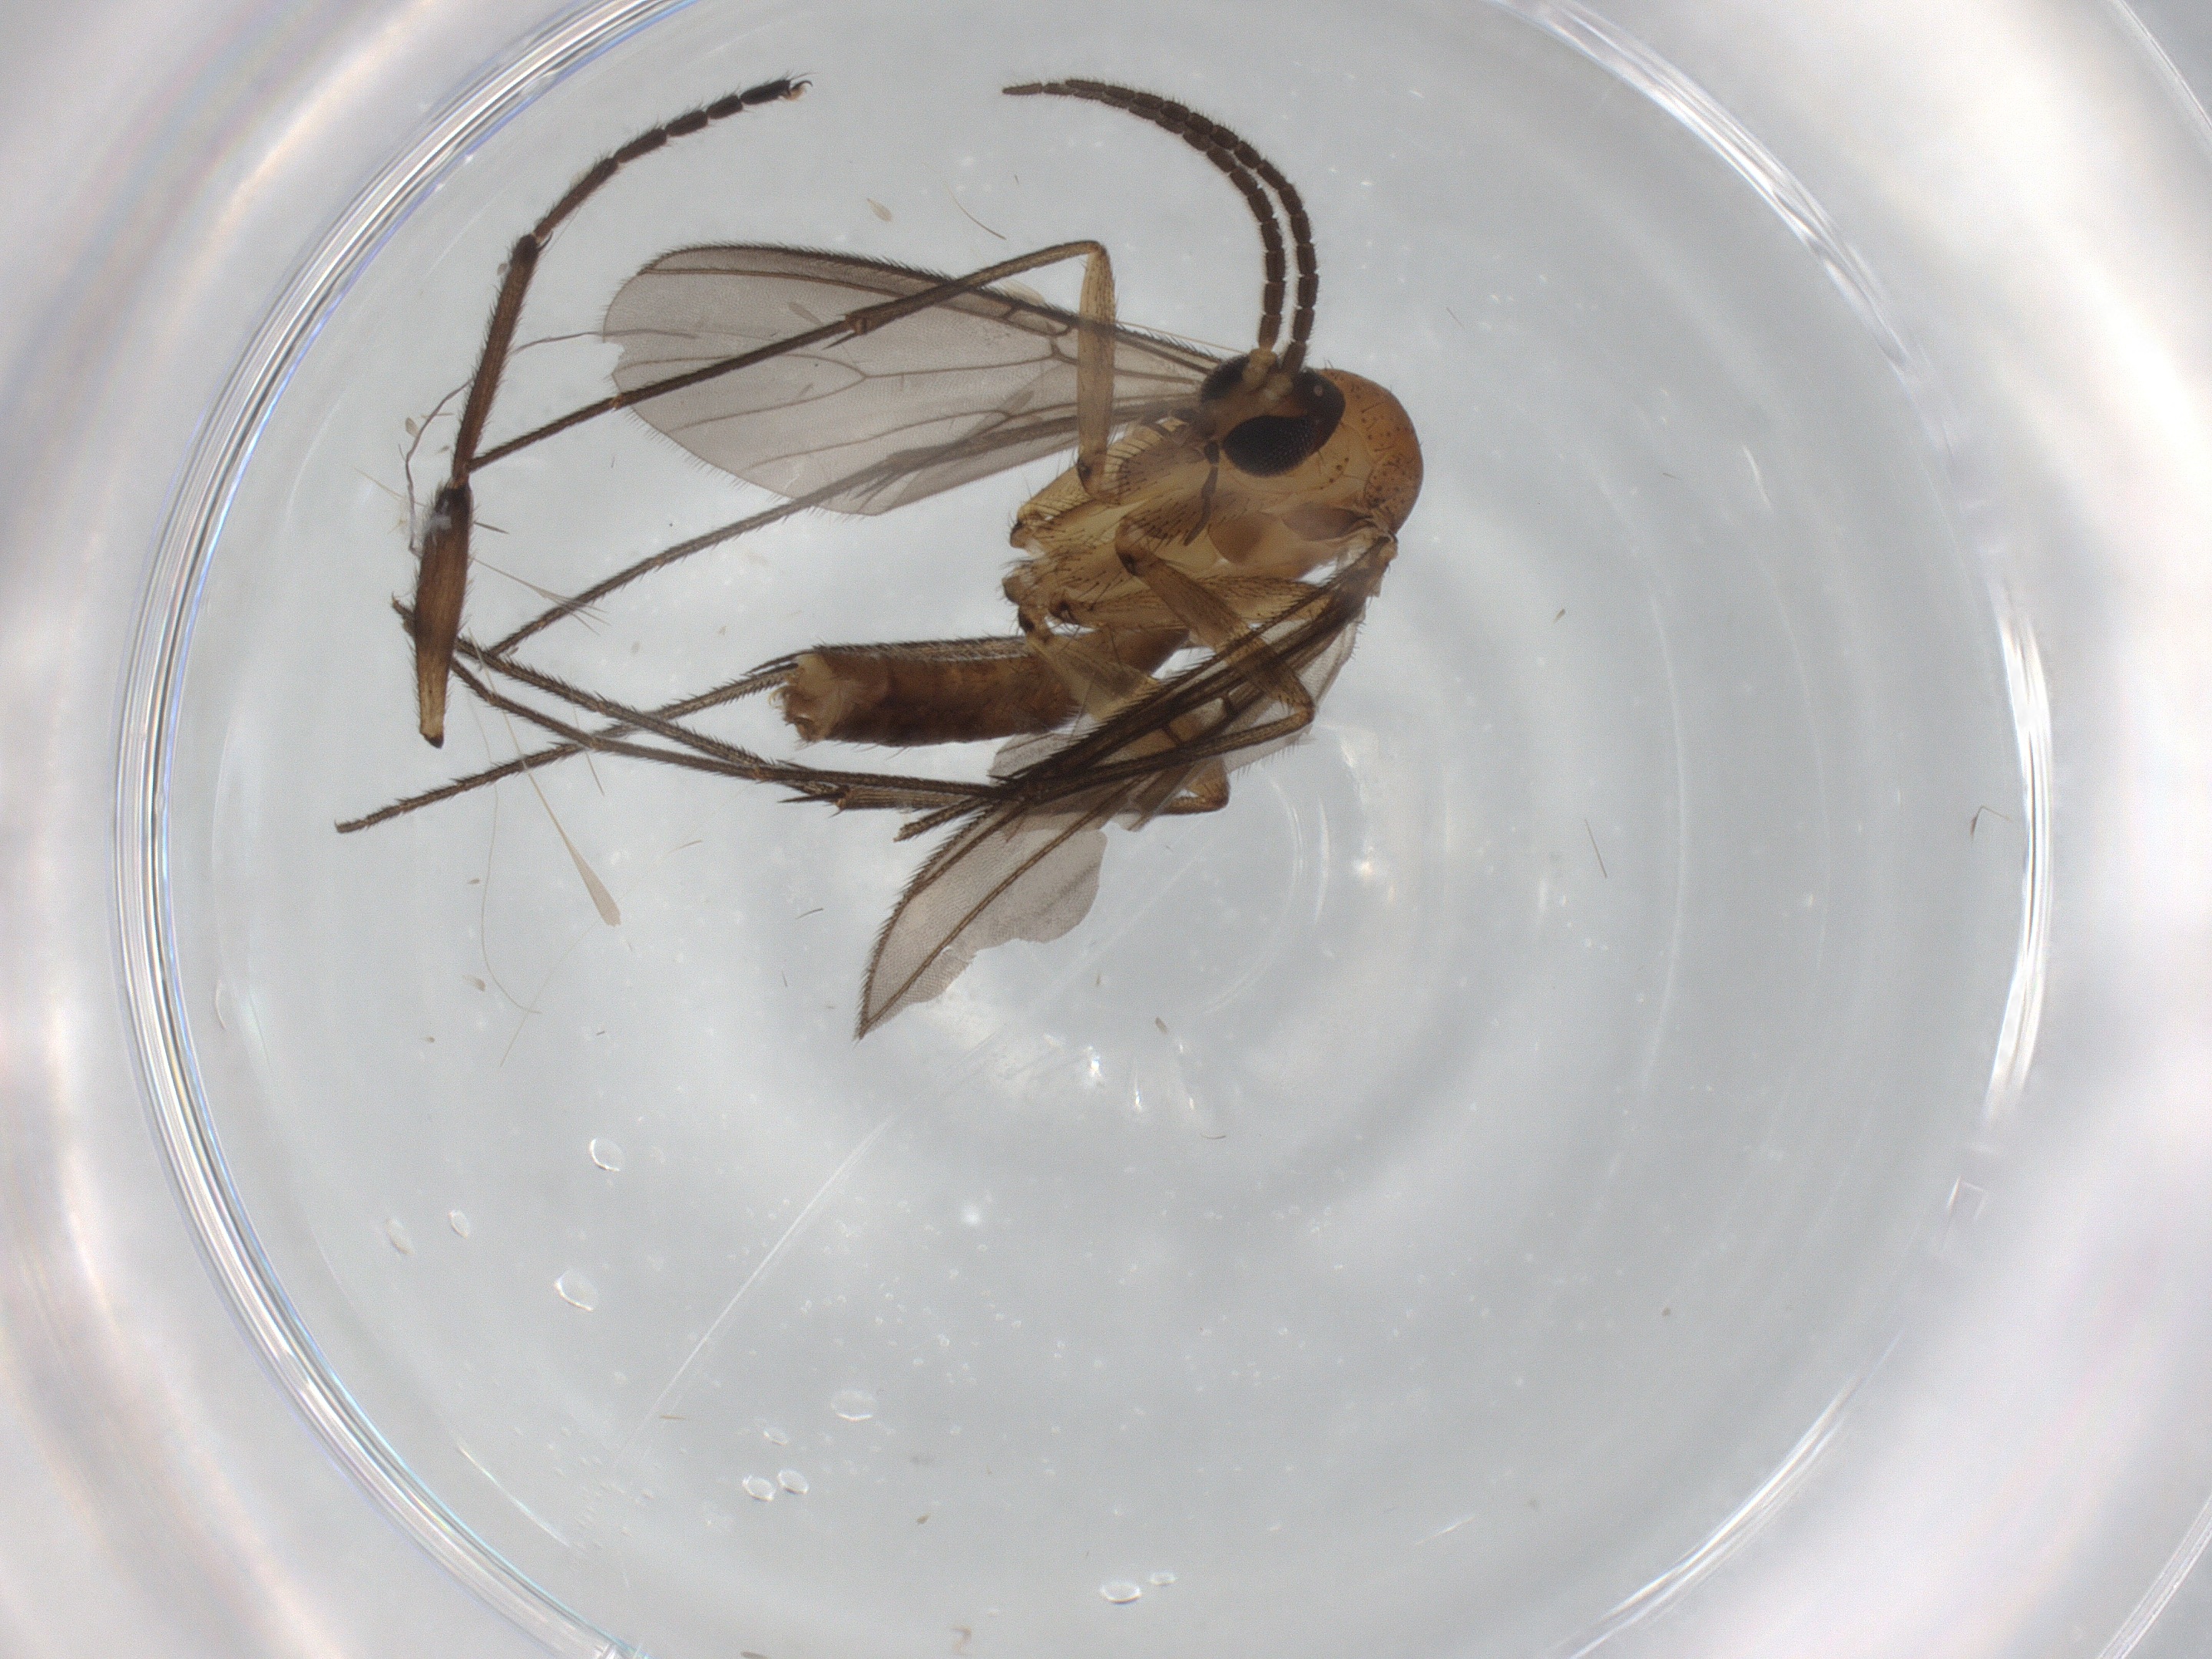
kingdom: Animalia
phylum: Arthropoda
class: Insecta
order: Diptera
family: Mycetophilidae
